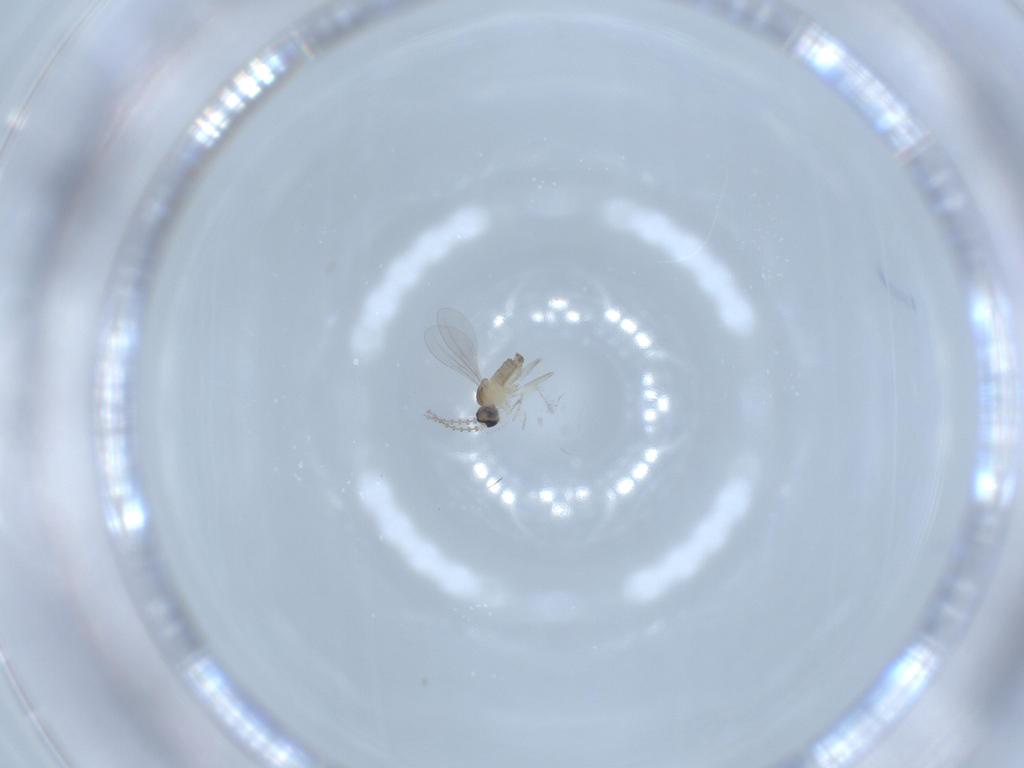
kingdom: Animalia
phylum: Arthropoda
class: Insecta
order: Diptera
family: Cecidomyiidae
